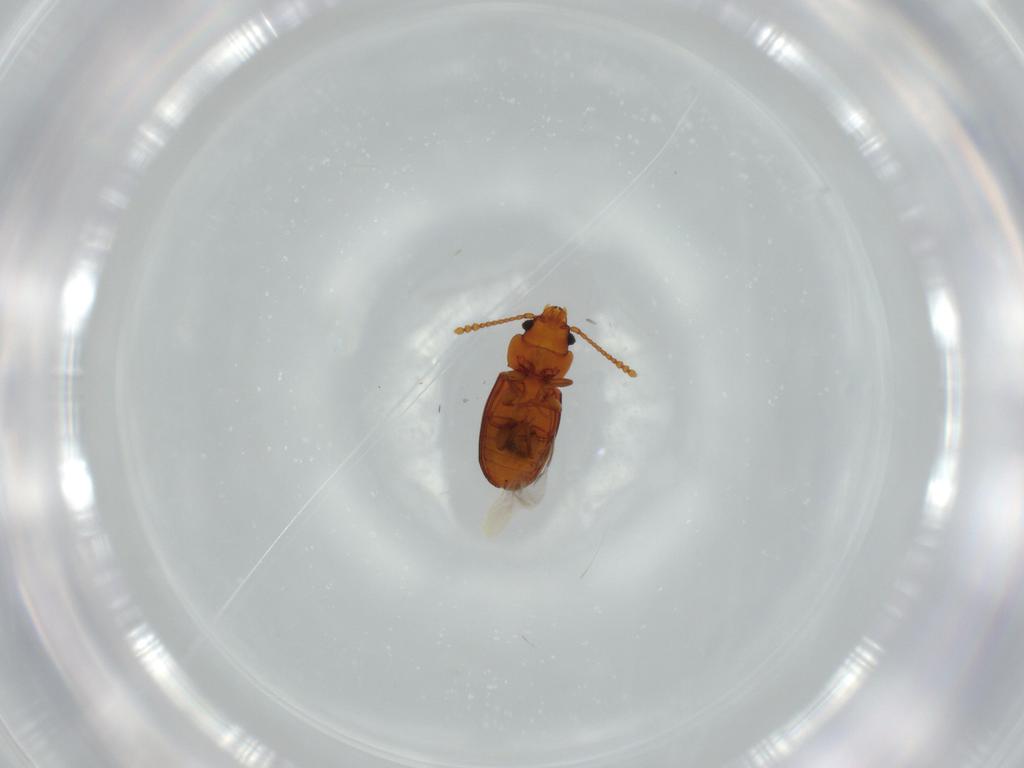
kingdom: Animalia
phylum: Arthropoda
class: Insecta
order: Coleoptera
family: Laemophloeidae
